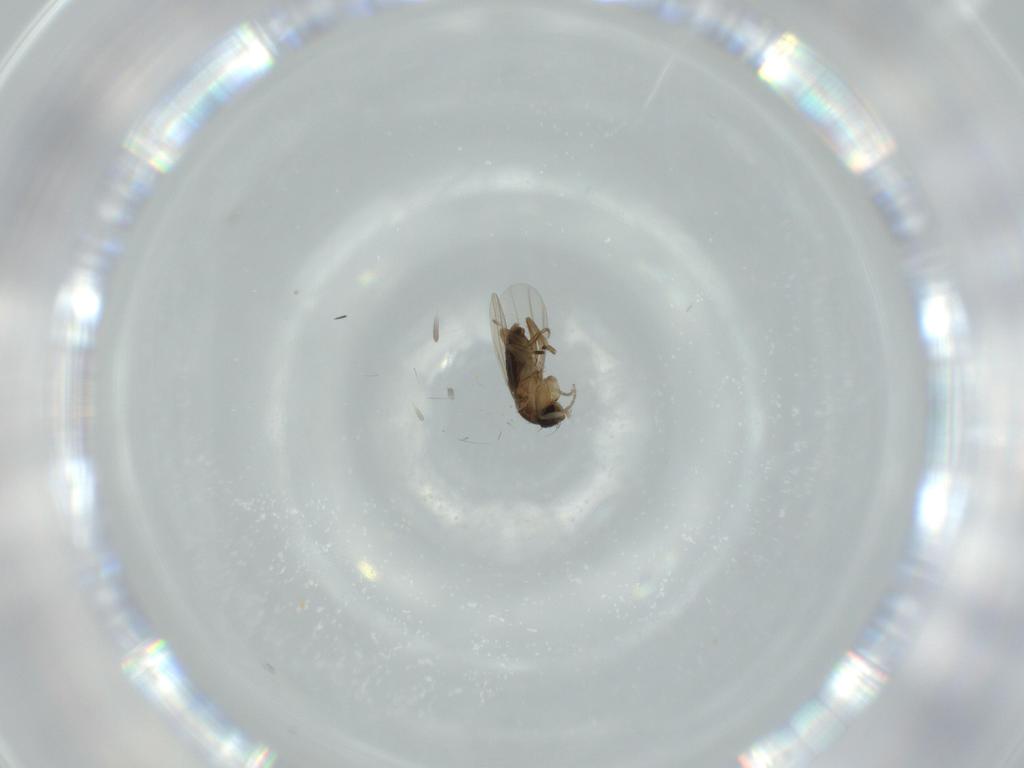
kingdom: Animalia
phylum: Arthropoda
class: Insecta
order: Diptera
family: Phoridae
